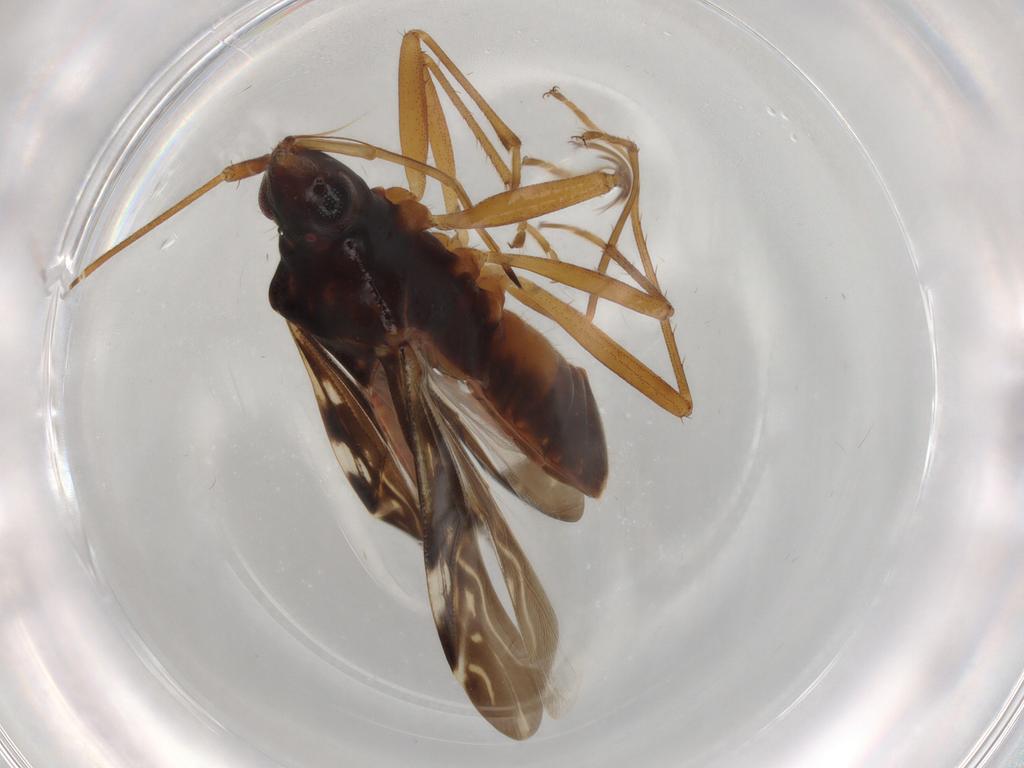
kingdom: Animalia
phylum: Arthropoda
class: Insecta
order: Hemiptera
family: Rhyparochromidae
